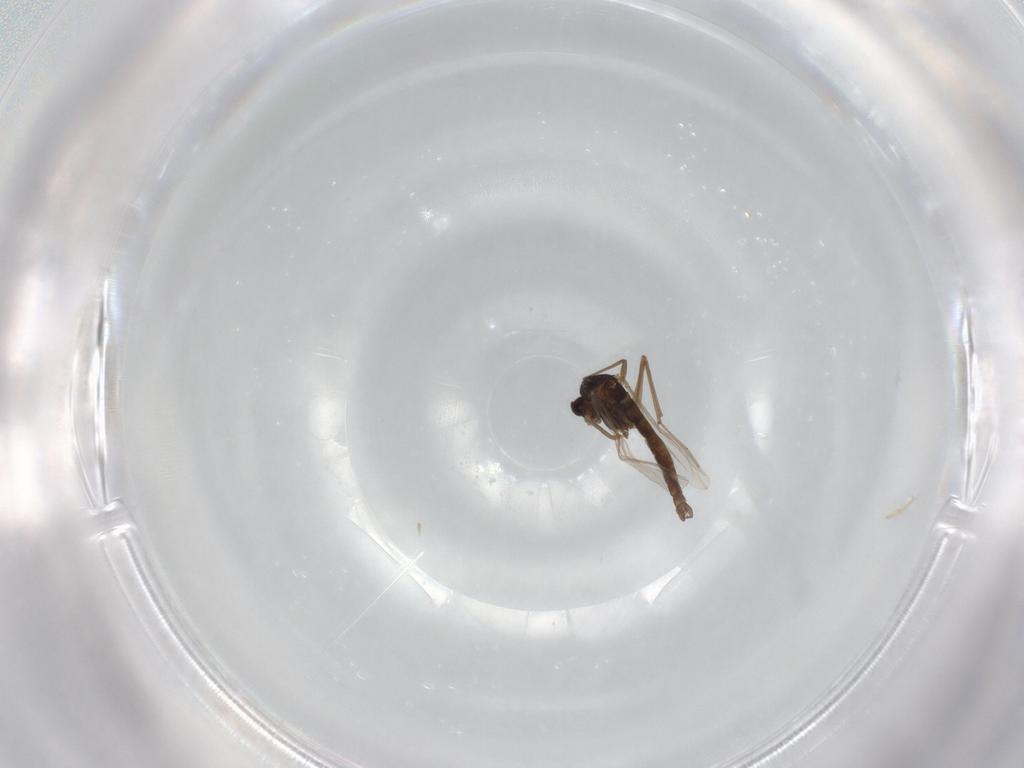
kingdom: Animalia
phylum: Arthropoda
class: Insecta
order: Diptera
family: Chironomidae
